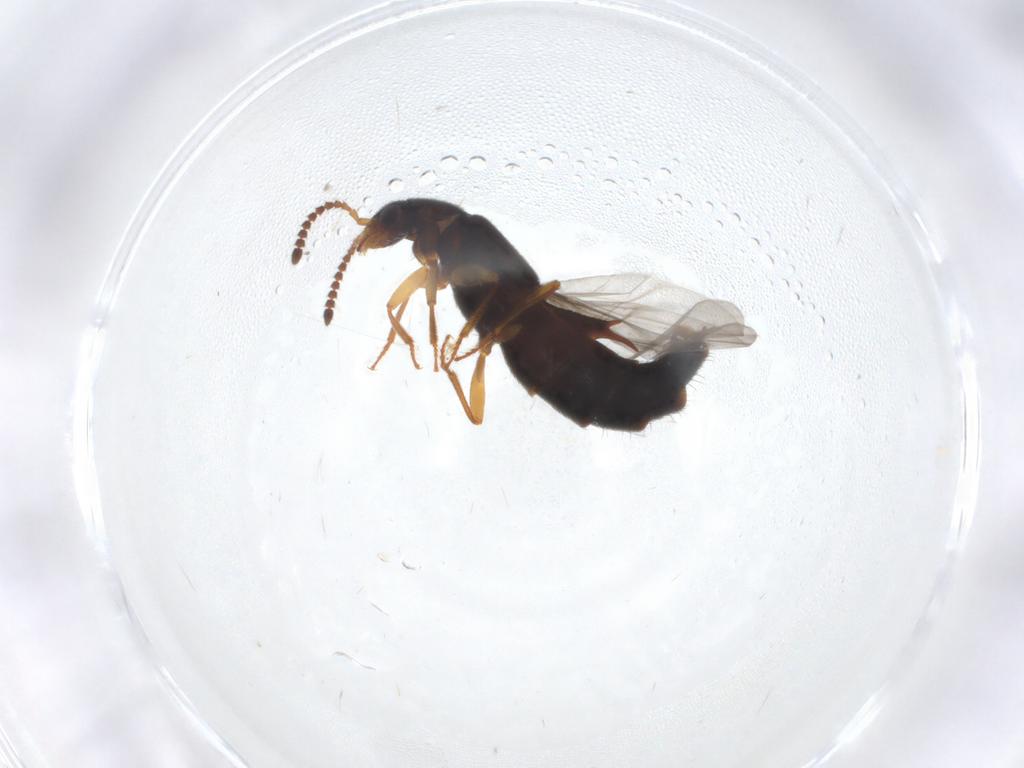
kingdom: Animalia
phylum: Arthropoda
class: Insecta
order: Coleoptera
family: Staphylinidae
